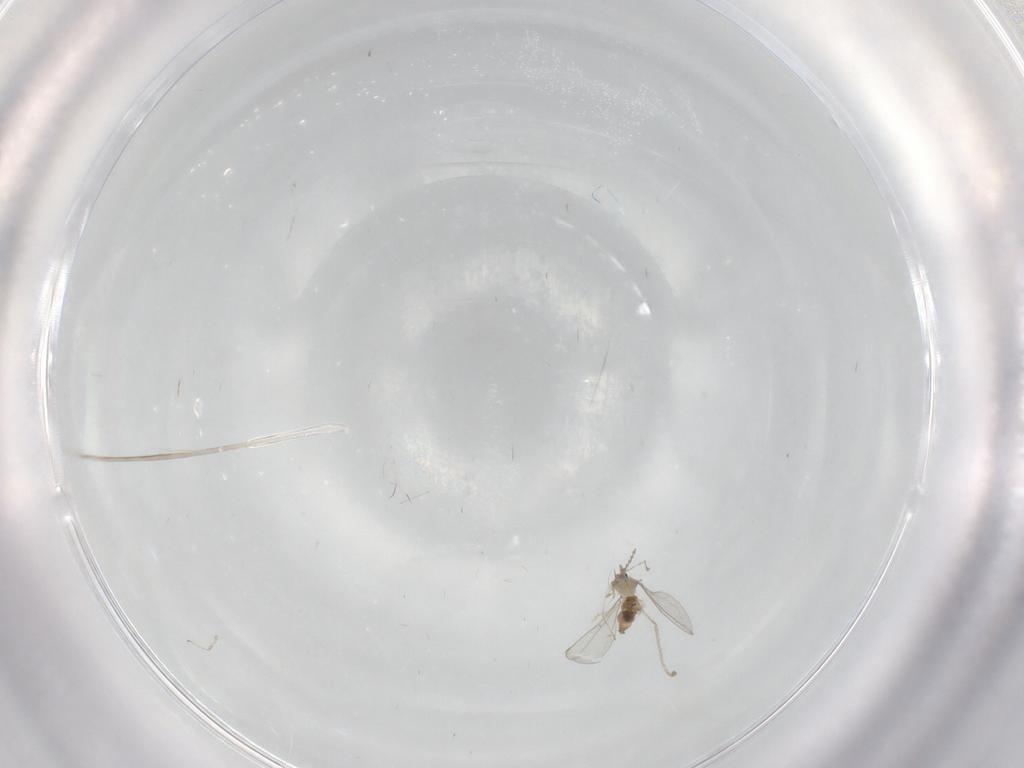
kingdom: Animalia
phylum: Arthropoda
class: Insecta
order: Diptera
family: Cecidomyiidae
